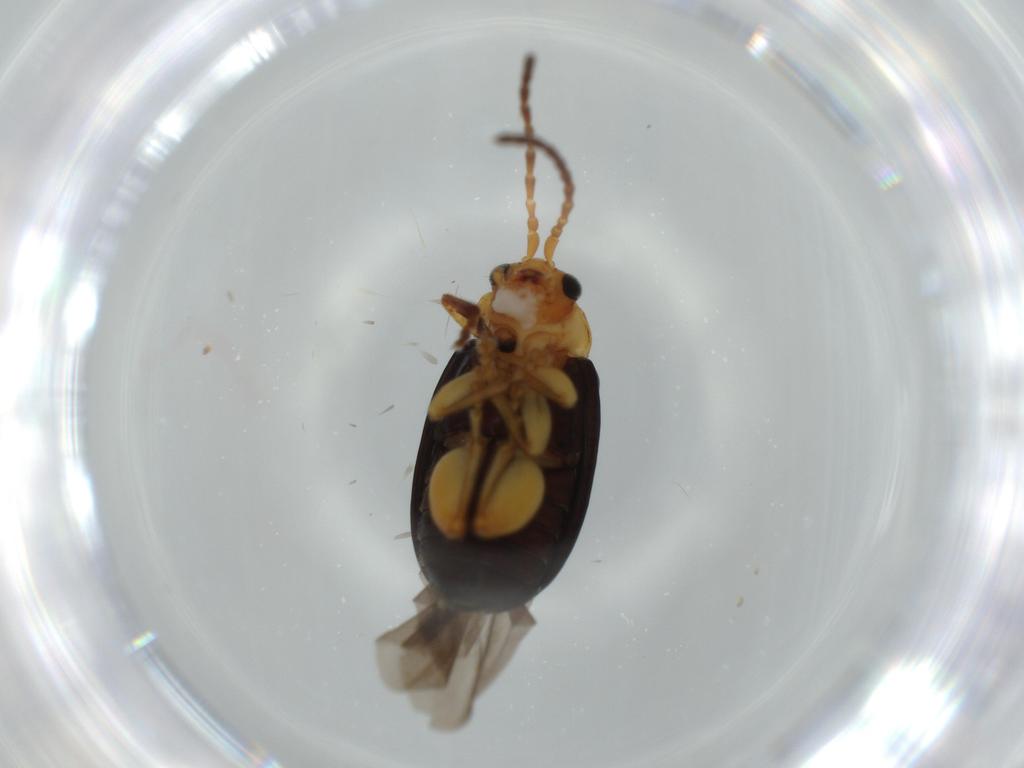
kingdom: Animalia
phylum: Arthropoda
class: Insecta
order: Coleoptera
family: Chrysomelidae
